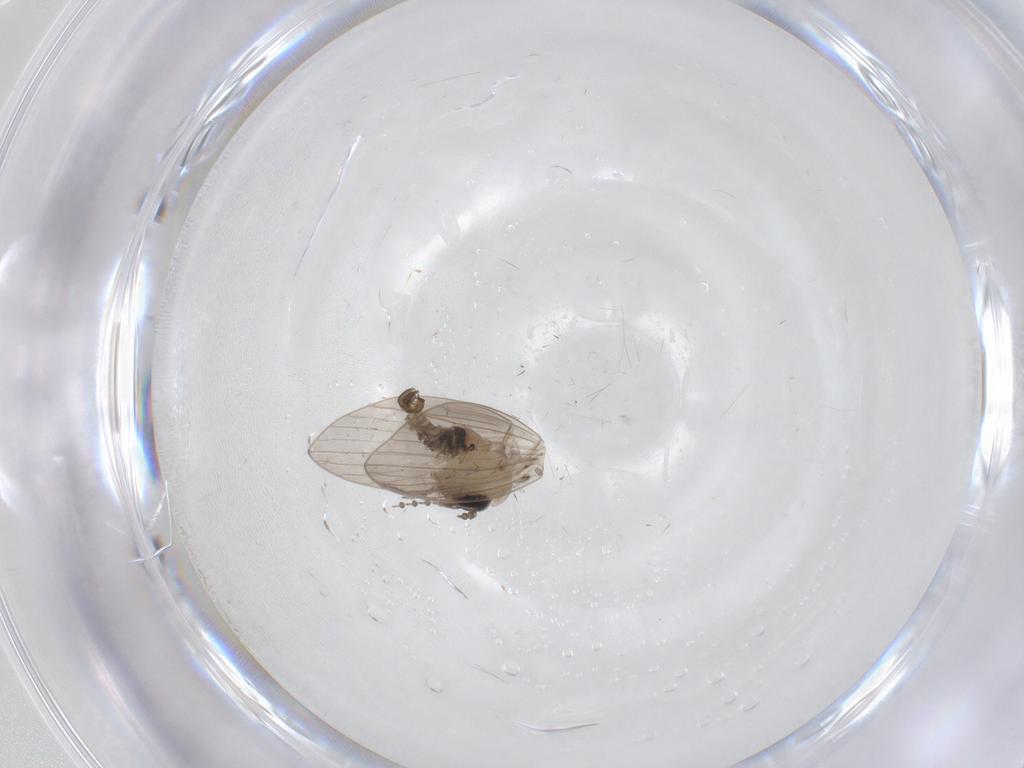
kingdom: Animalia
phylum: Arthropoda
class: Insecta
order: Diptera
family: Psychodidae
